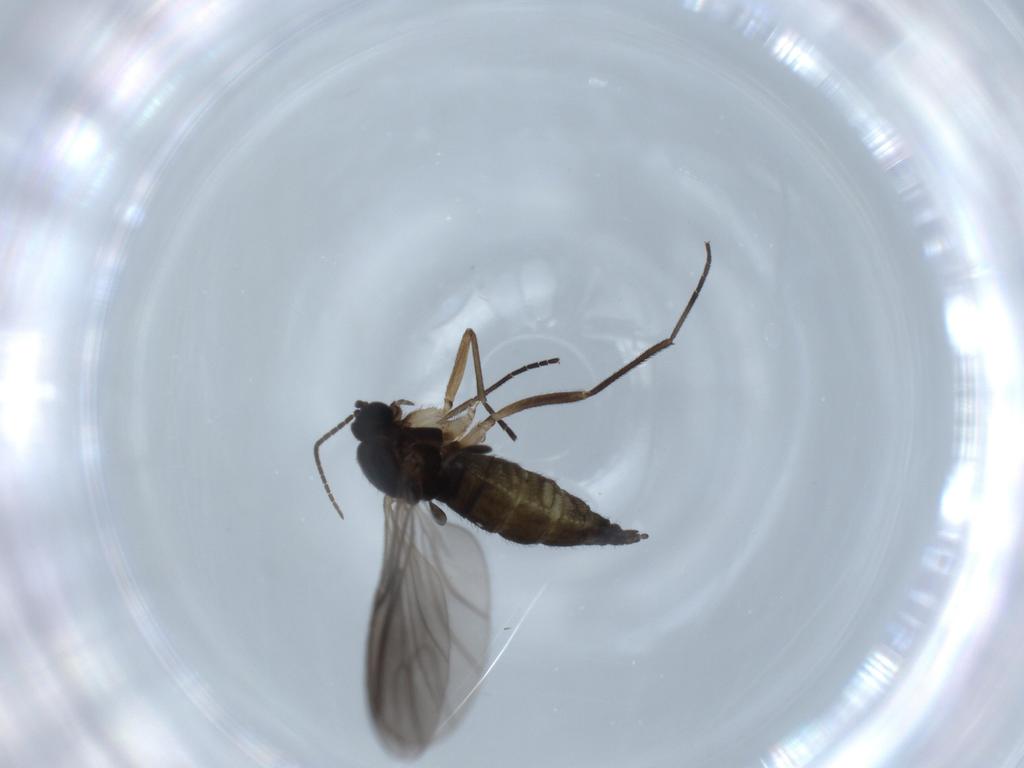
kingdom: Animalia
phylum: Arthropoda
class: Insecta
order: Diptera
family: Sciaridae
